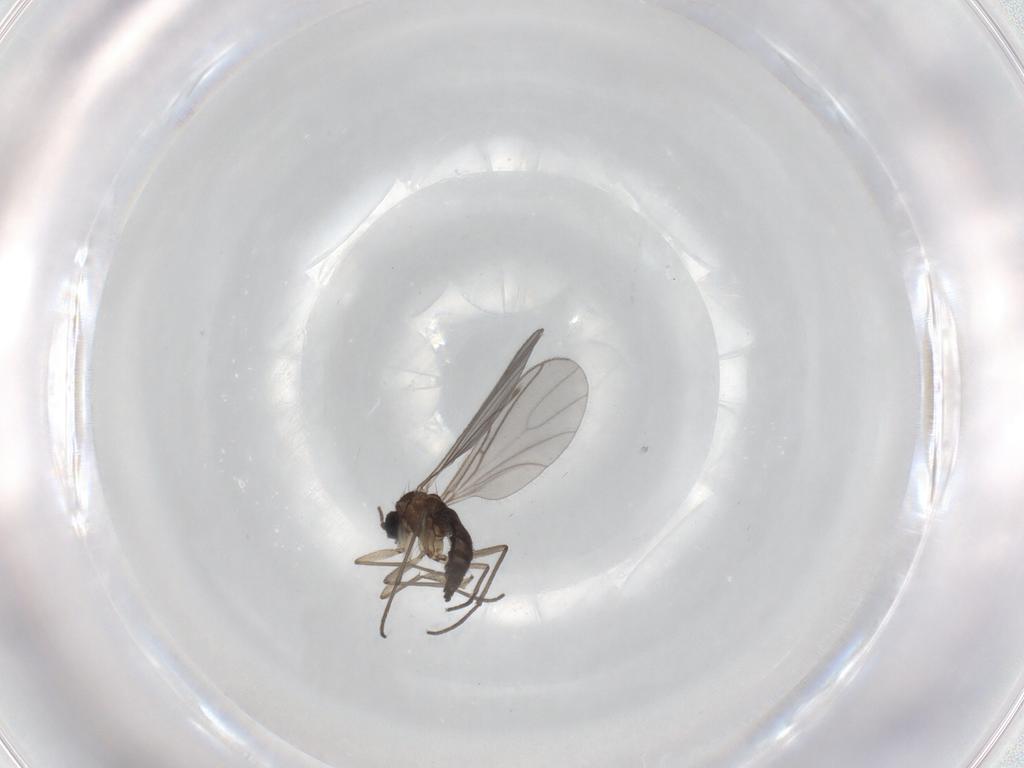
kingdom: Animalia
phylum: Arthropoda
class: Insecta
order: Diptera
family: Sciaridae
